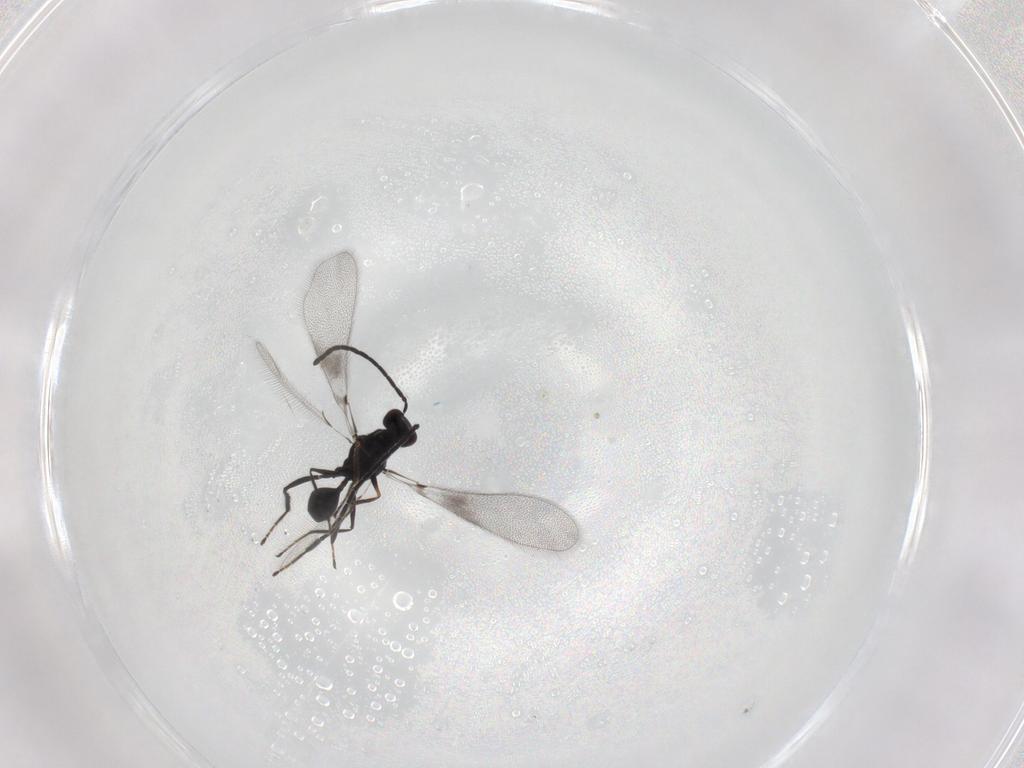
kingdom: Animalia
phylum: Arthropoda
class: Insecta
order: Hymenoptera
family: Mymaridae
